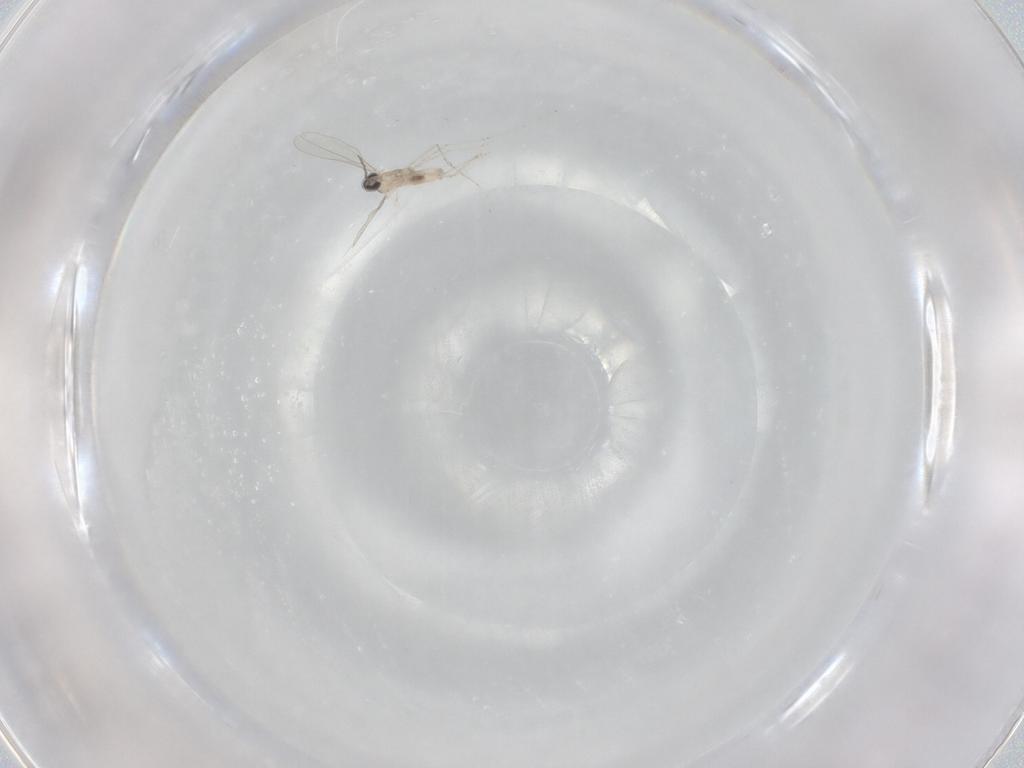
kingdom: Animalia
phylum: Arthropoda
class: Insecta
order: Diptera
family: Cecidomyiidae
